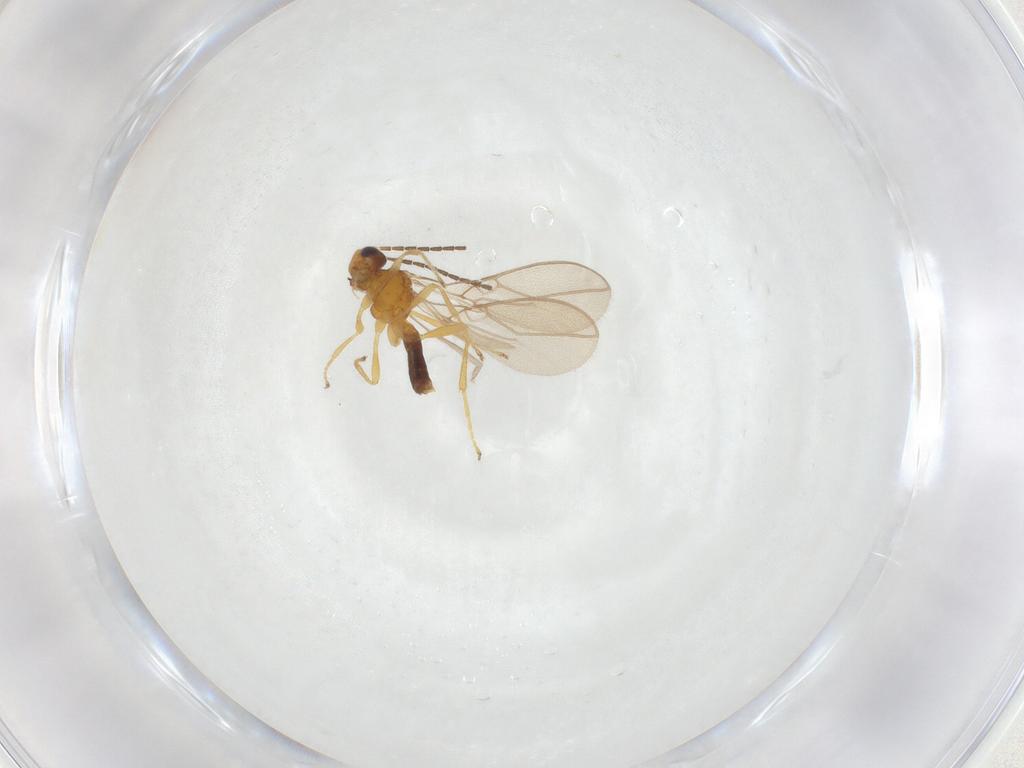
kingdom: Animalia
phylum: Arthropoda
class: Insecta
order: Hymenoptera
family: Braconidae
